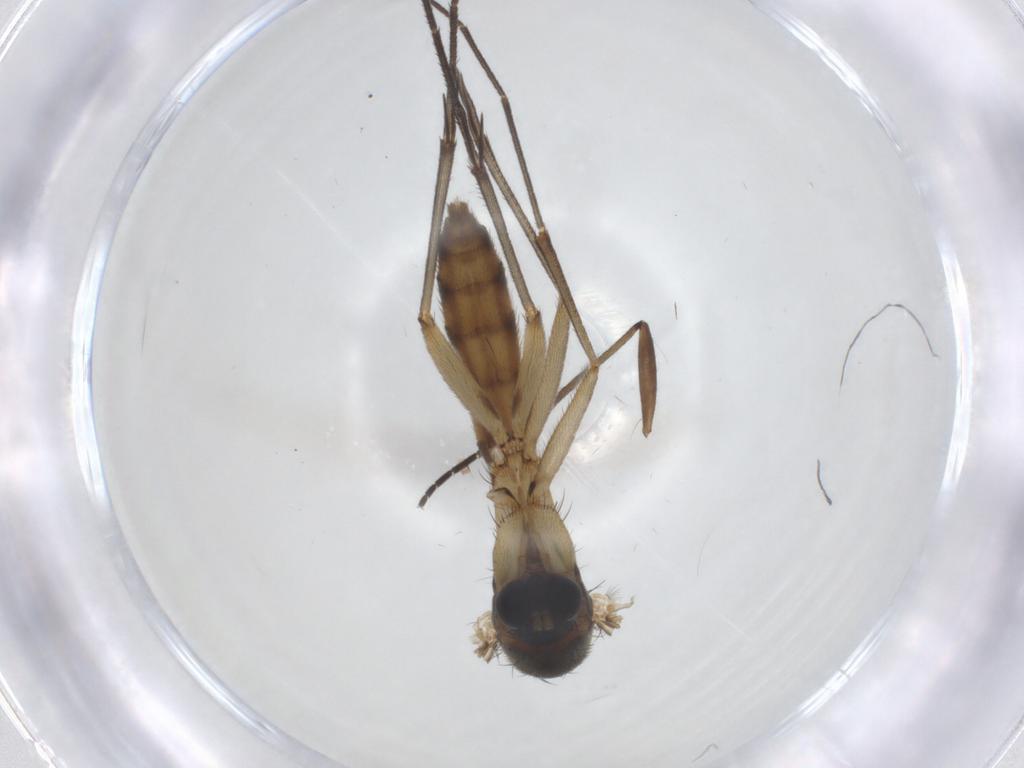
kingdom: Animalia
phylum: Arthropoda
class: Insecta
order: Diptera
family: Mycetophilidae
